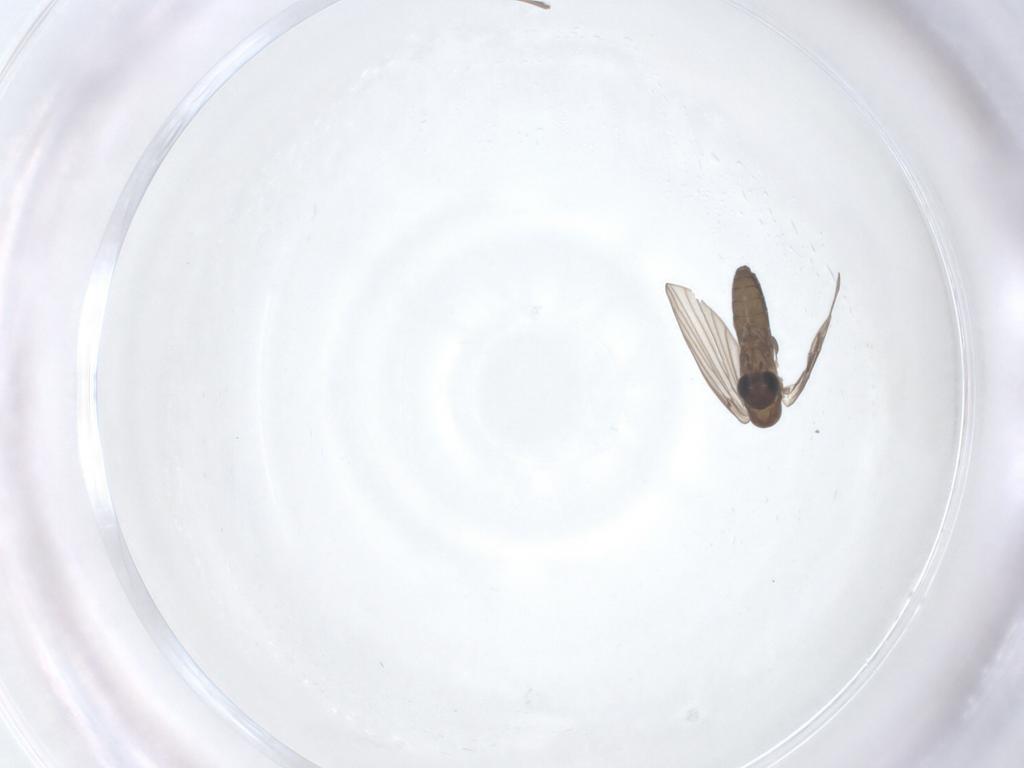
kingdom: Animalia
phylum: Arthropoda
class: Insecta
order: Diptera
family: Psychodidae
